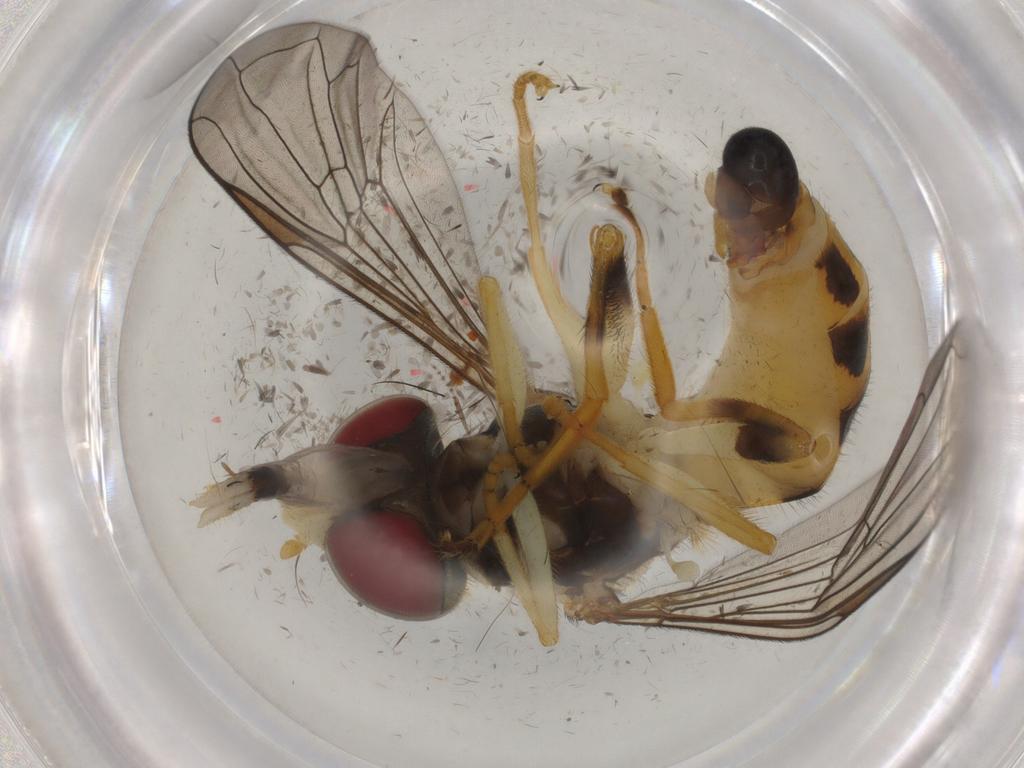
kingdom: Animalia
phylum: Arthropoda
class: Insecta
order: Diptera
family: Syrphidae
